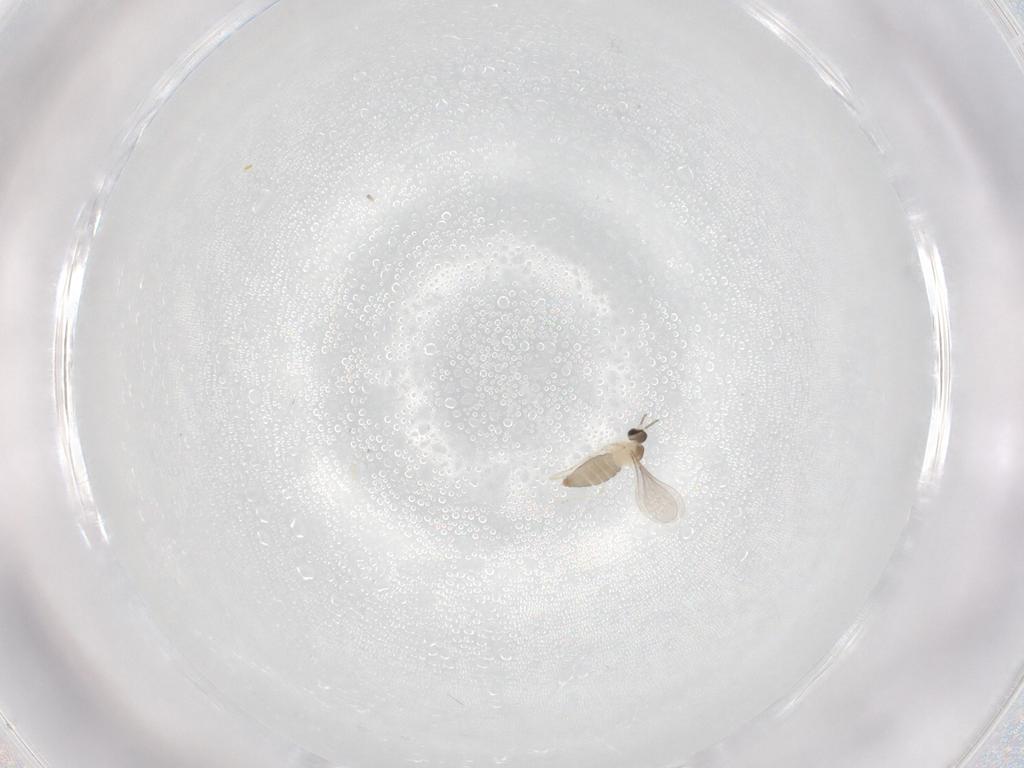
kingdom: Animalia
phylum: Arthropoda
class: Insecta
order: Diptera
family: Cecidomyiidae
